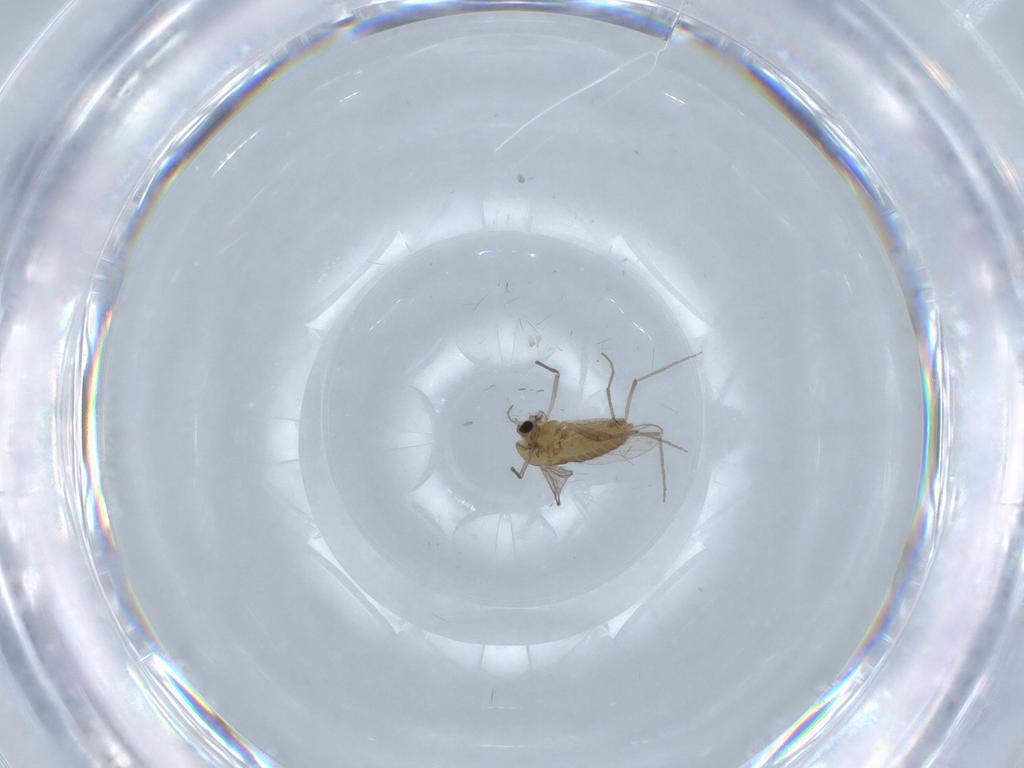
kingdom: Animalia
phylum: Arthropoda
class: Insecta
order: Diptera
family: Chironomidae
